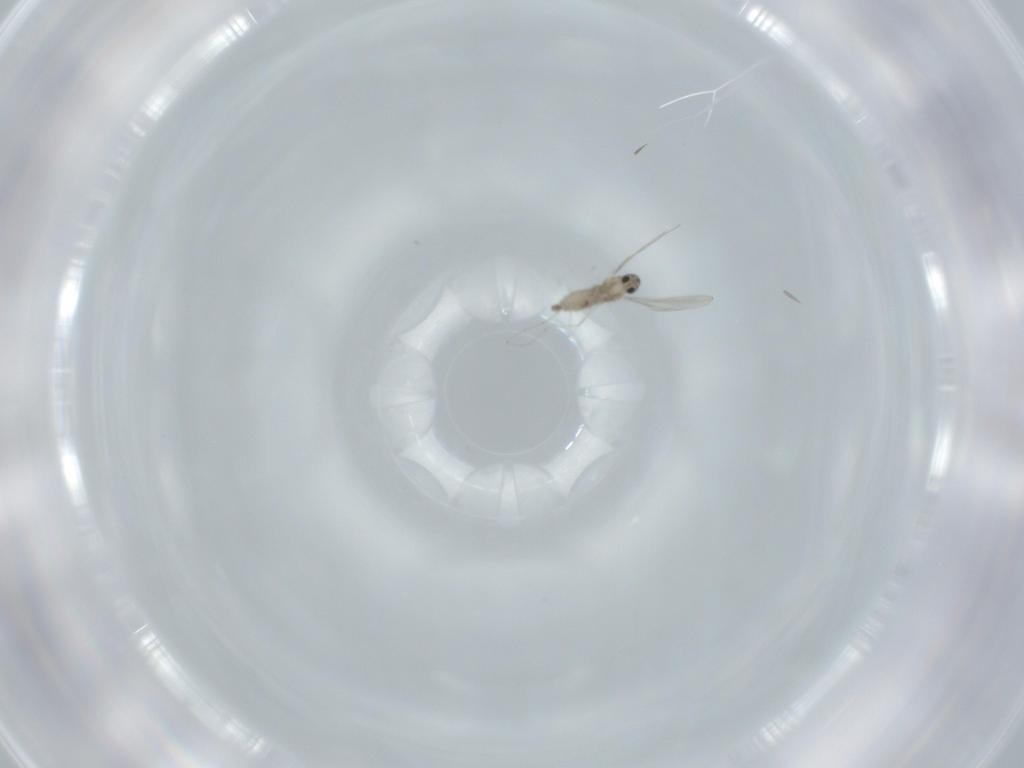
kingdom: Animalia
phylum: Arthropoda
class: Insecta
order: Diptera
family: Cecidomyiidae
